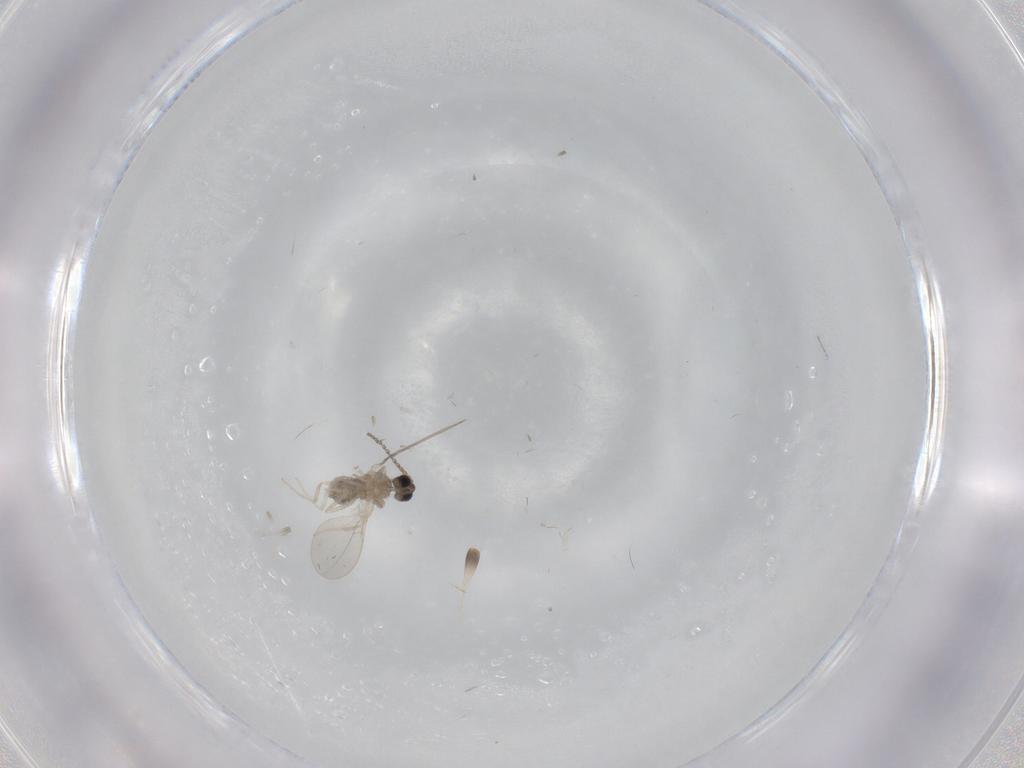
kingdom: Animalia
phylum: Arthropoda
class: Insecta
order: Diptera
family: Cecidomyiidae
